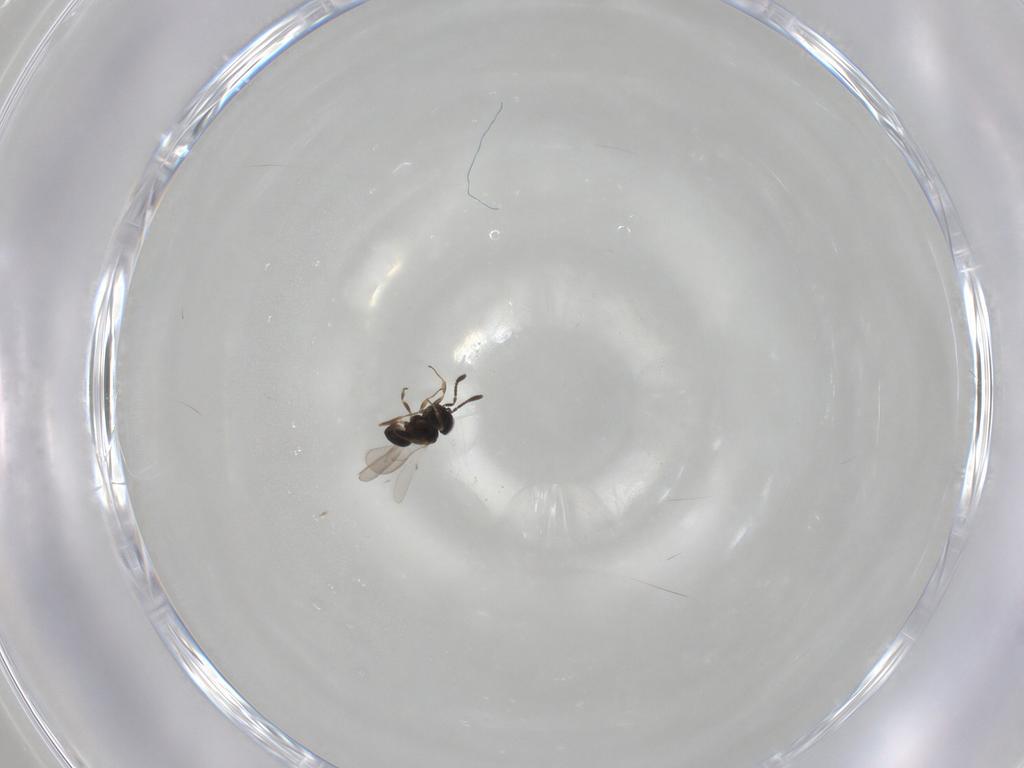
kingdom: Animalia
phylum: Arthropoda
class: Insecta
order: Hymenoptera
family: Scelionidae
